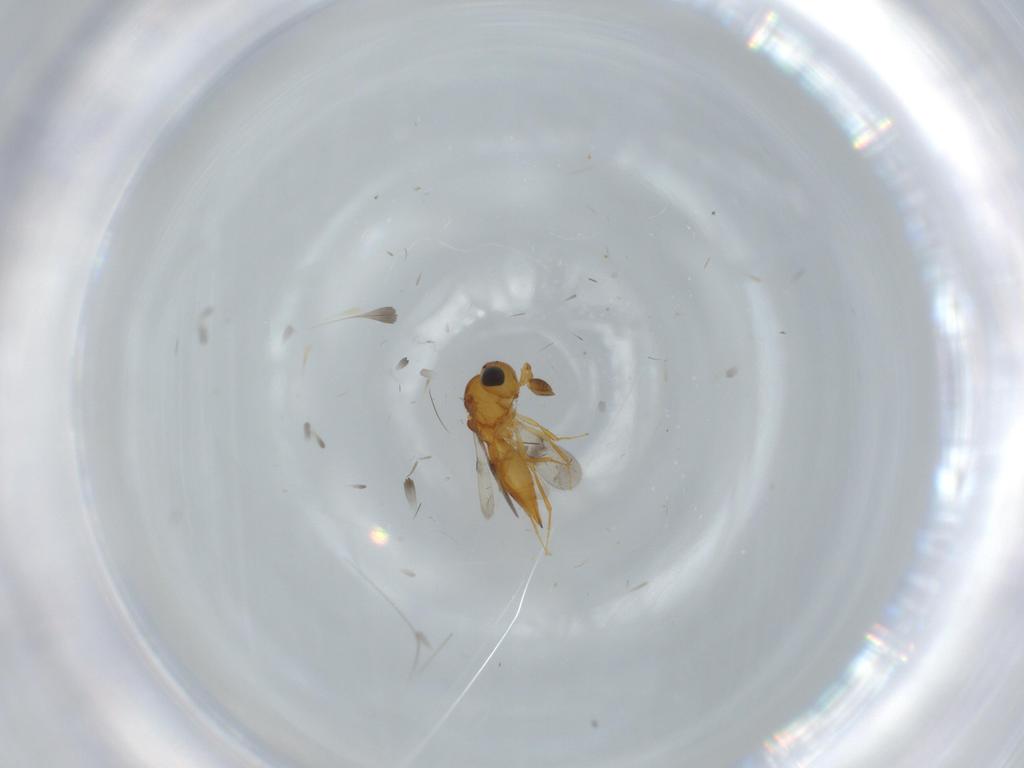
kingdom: Animalia
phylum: Arthropoda
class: Insecta
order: Hymenoptera
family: Scelionidae
